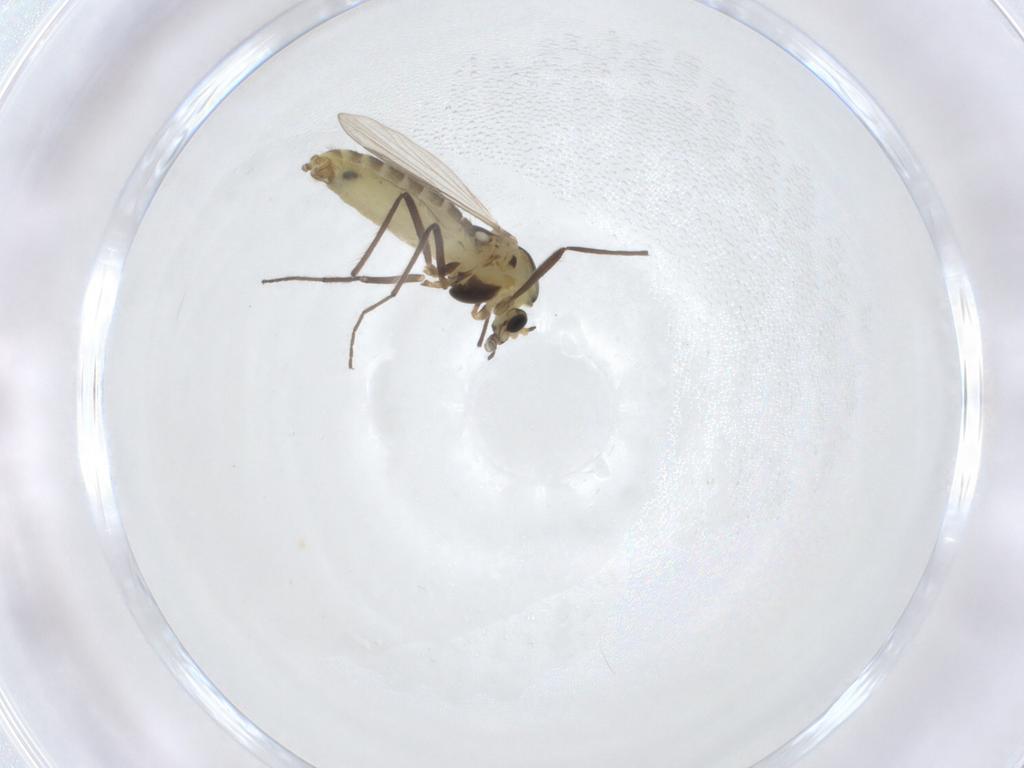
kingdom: Animalia
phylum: Arthropoda
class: Insecta
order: Diptera
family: Chironomidae
